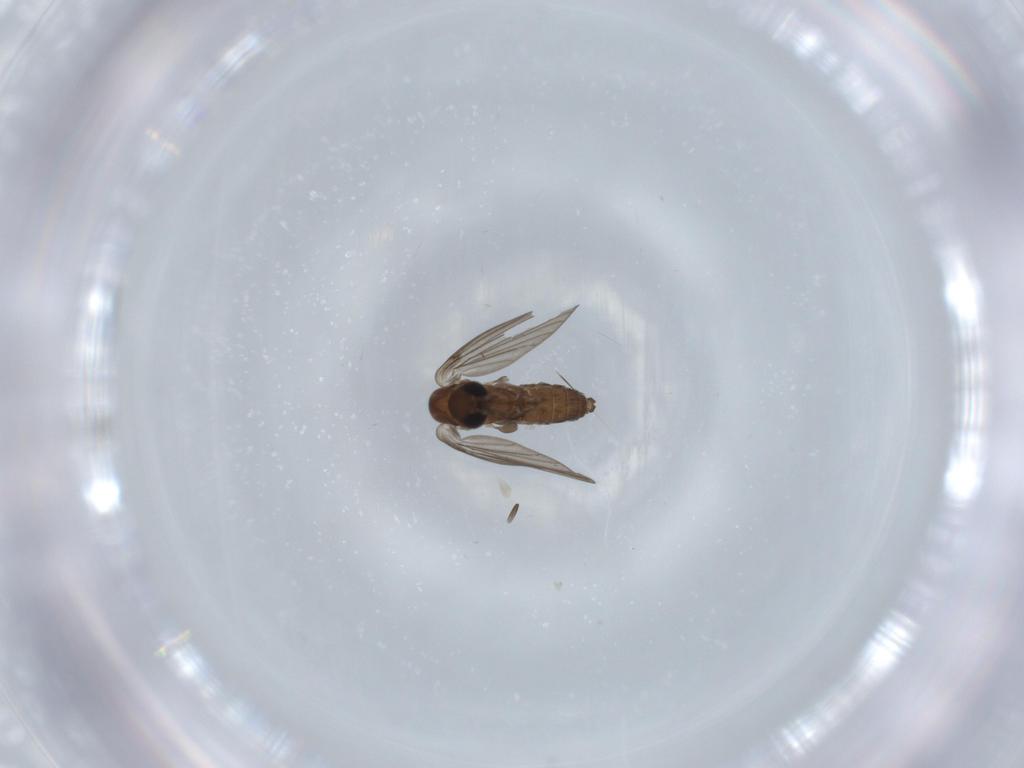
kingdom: Animalia
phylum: Arthropoda
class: Insecta
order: Diptera
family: Psychodidae
